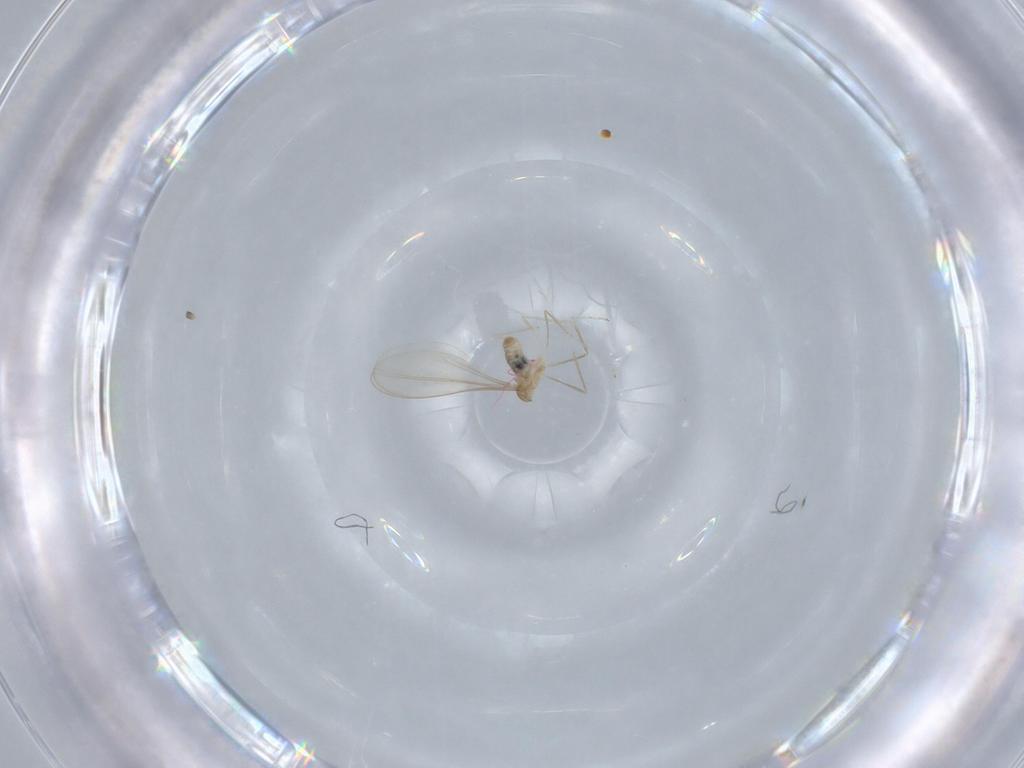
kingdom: Animalia
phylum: Arthropoda
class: Insecta
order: Diptera
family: Cecidomyiidae
